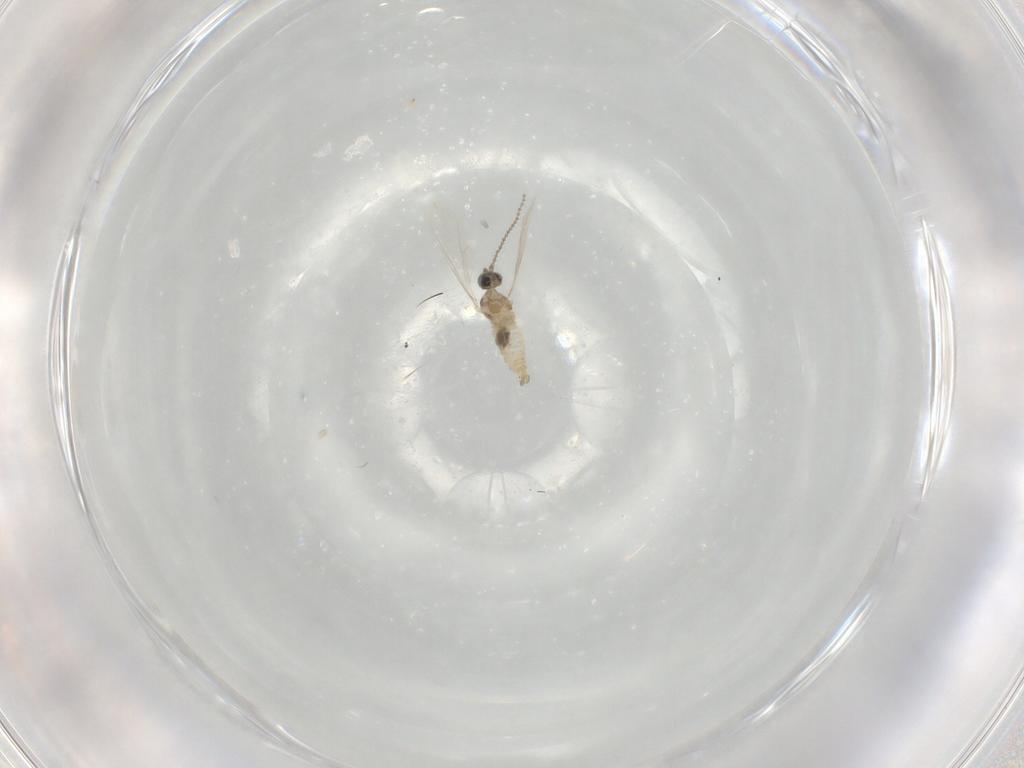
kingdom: Animalia
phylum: Arthropoda
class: Insecta
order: Diptera
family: Cecidomyiidae
